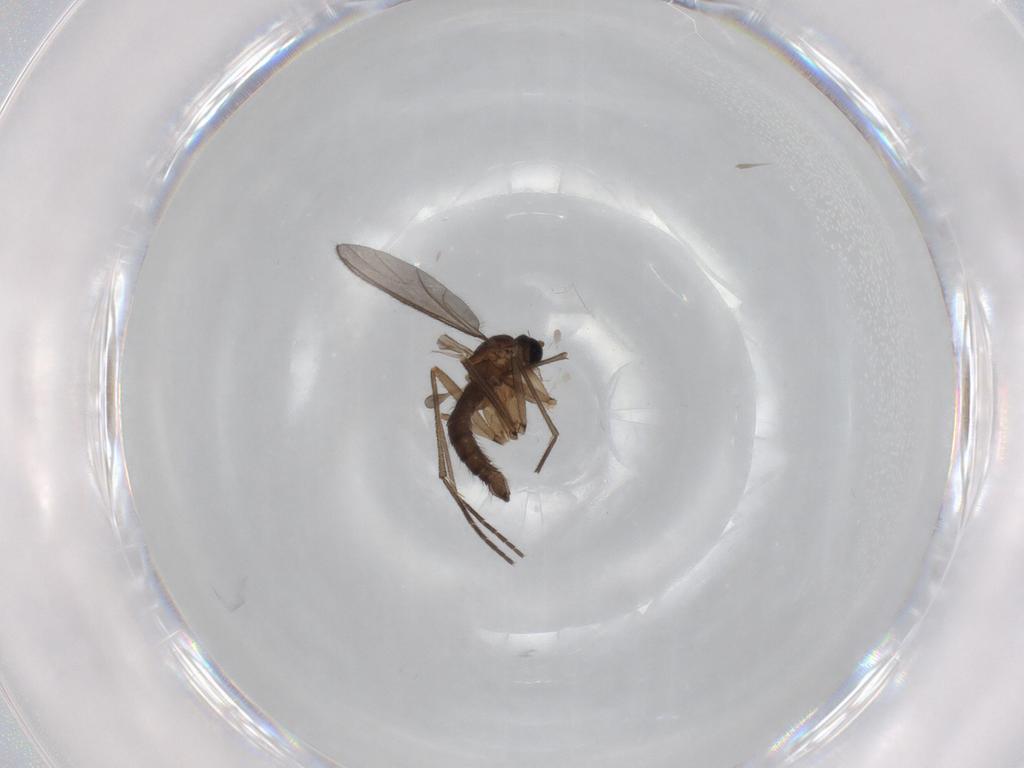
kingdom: Animalia
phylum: Arthropoda
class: Insecta
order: Diptera
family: Sciaridae
